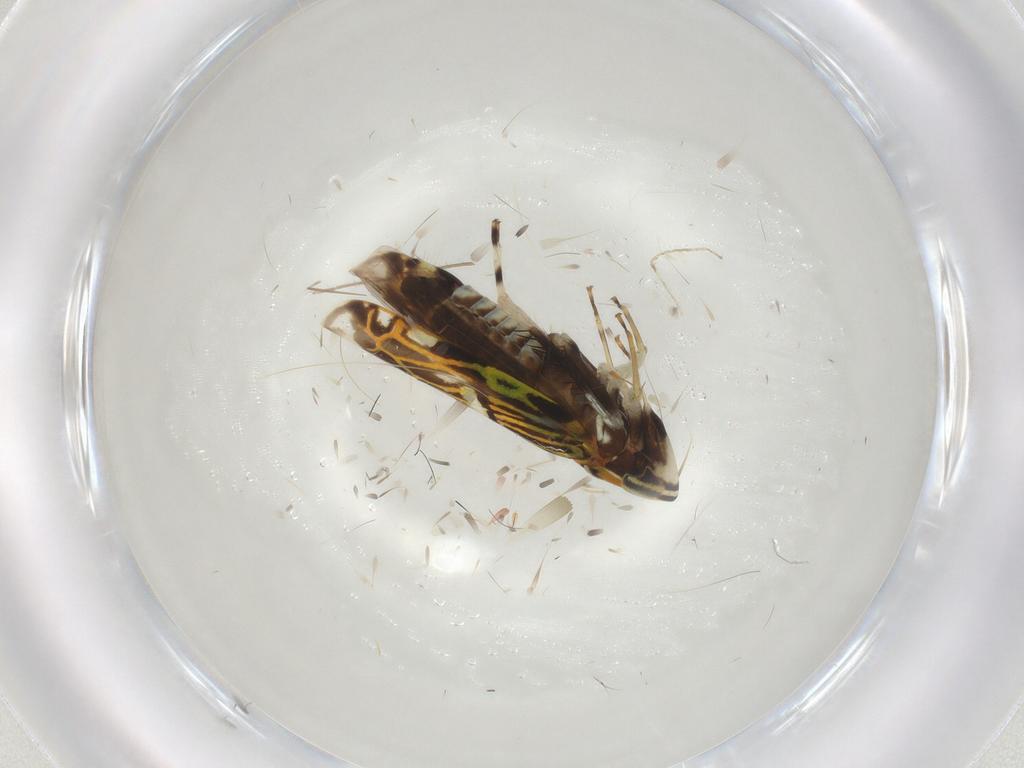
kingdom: Animalia
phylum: Arthropoda
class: Insecta
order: Hemiptera
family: Cicadellidae
